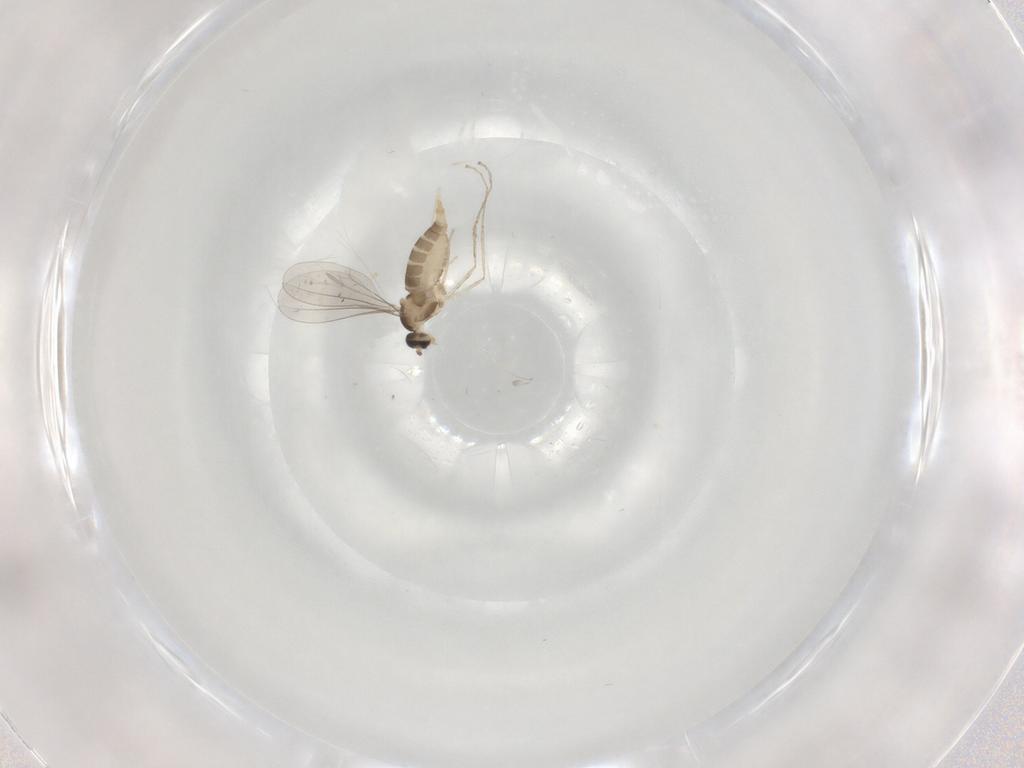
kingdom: Animalia
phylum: Arthropoda
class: Insecta
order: Diptera
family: Cecidomyiidae
